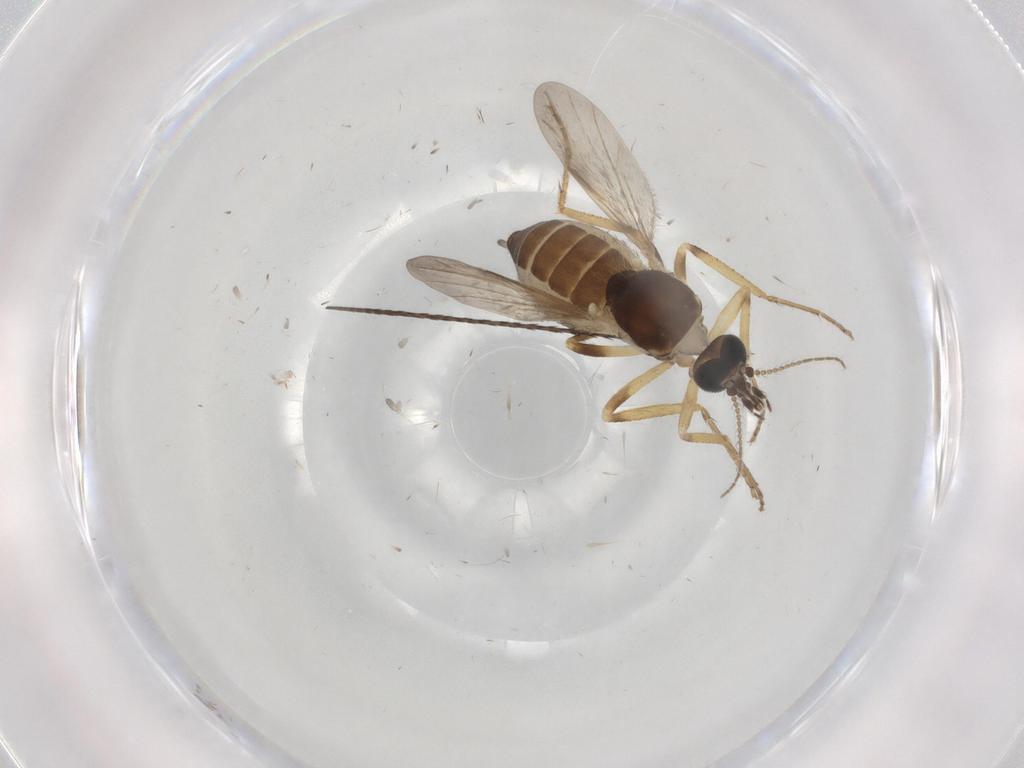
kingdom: Animalia
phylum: Arthropoda
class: Insecta
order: Diptera
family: Ceratopogonidae
